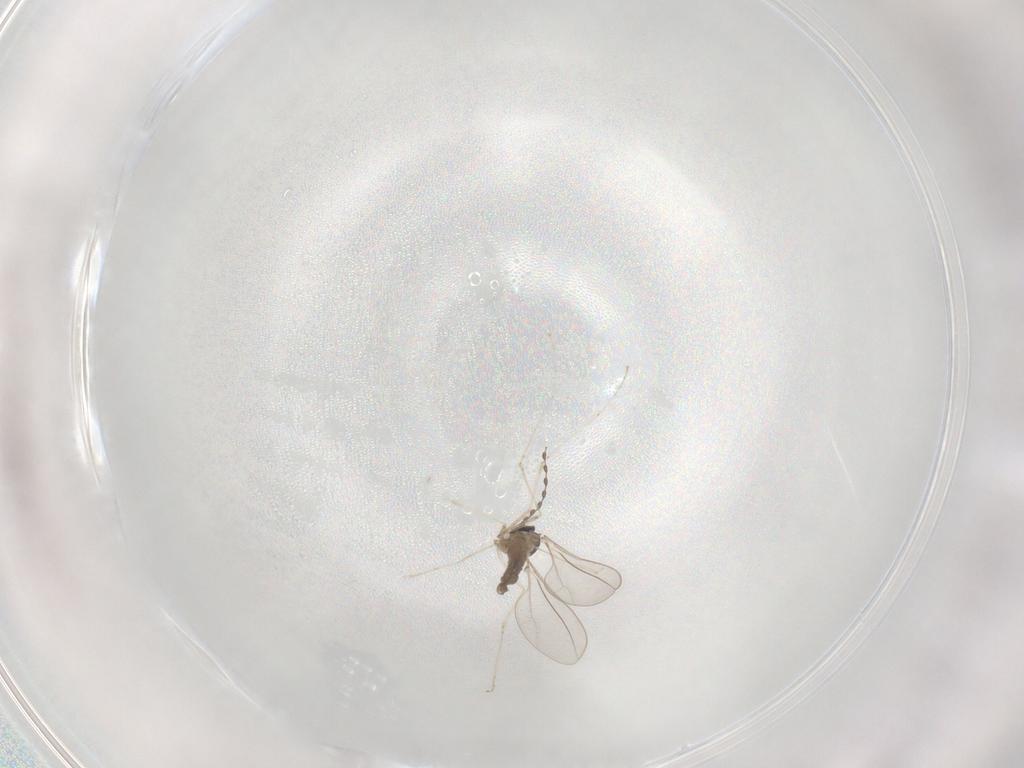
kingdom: Animalia
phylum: Arthropoda
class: Insecta
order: Diptera
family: Cecidomyiidae
